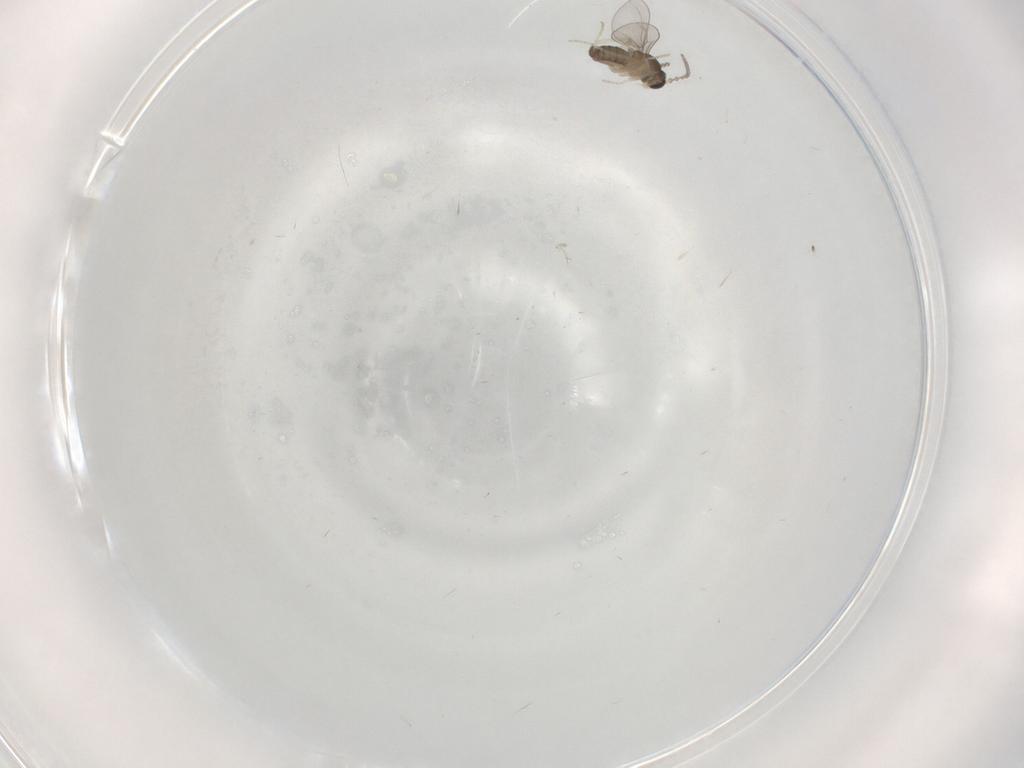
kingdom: Animalia
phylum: Arthropoda
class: Insecta
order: Diptera
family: Cecidomyiidae
